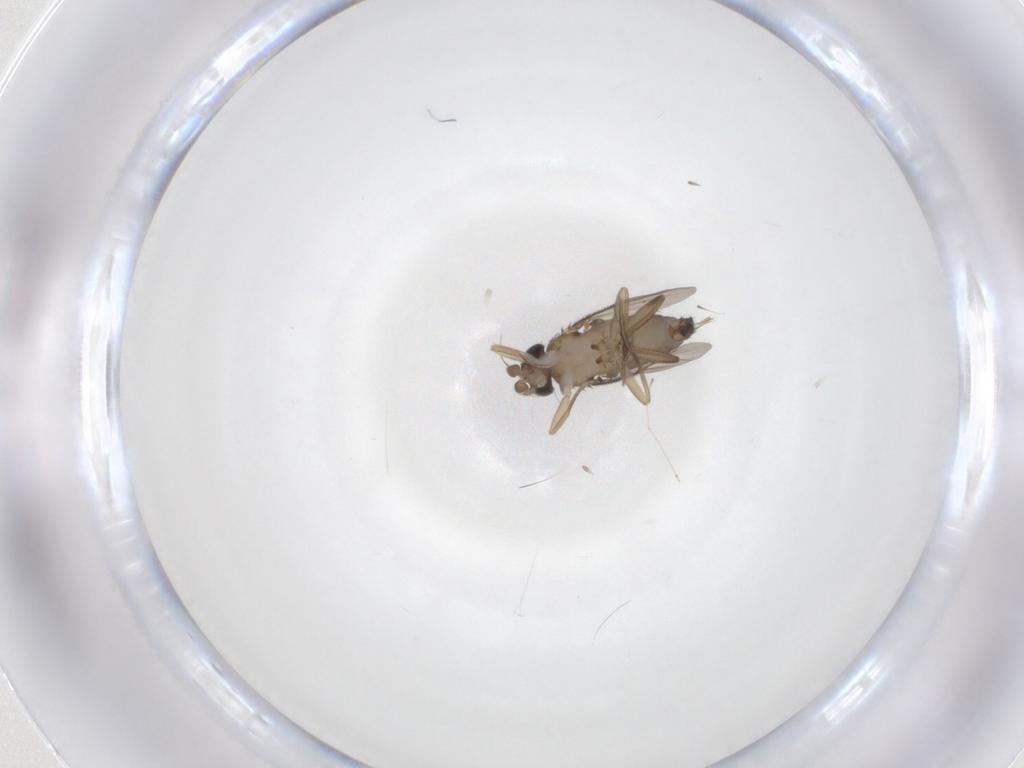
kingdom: Animalia
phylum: Arthropoda
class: Insecta
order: Diptera
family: Phoridae
